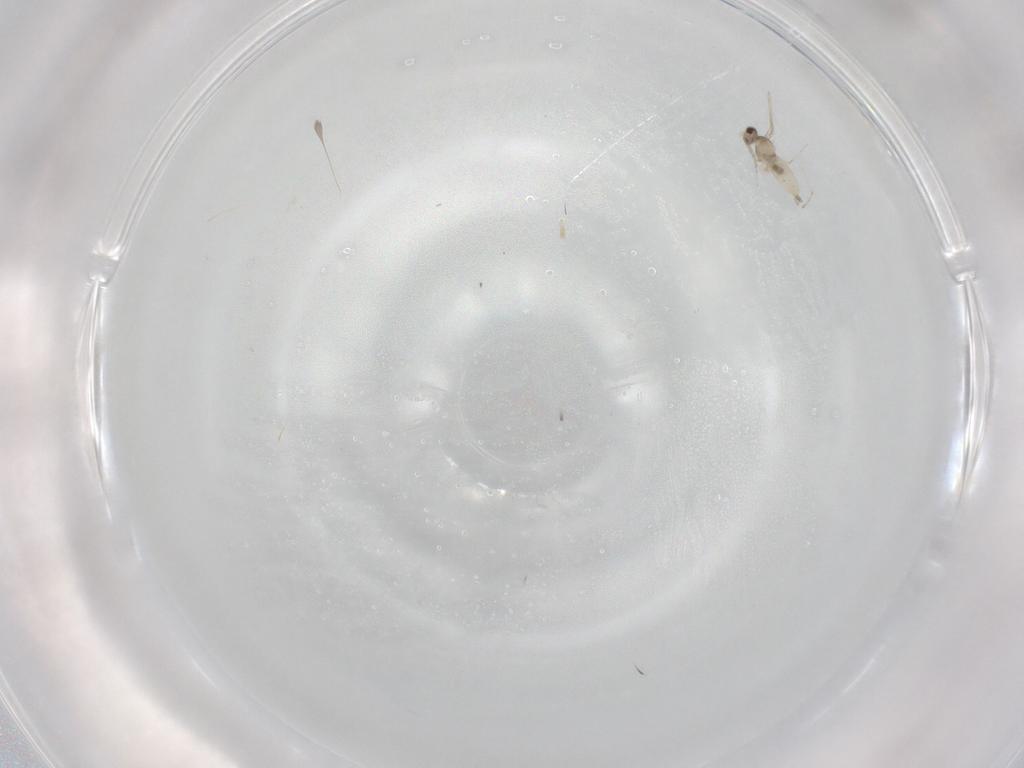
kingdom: Animalia
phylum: Arthropoda
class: Insecta
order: Diptera
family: Cecidomyiidae
